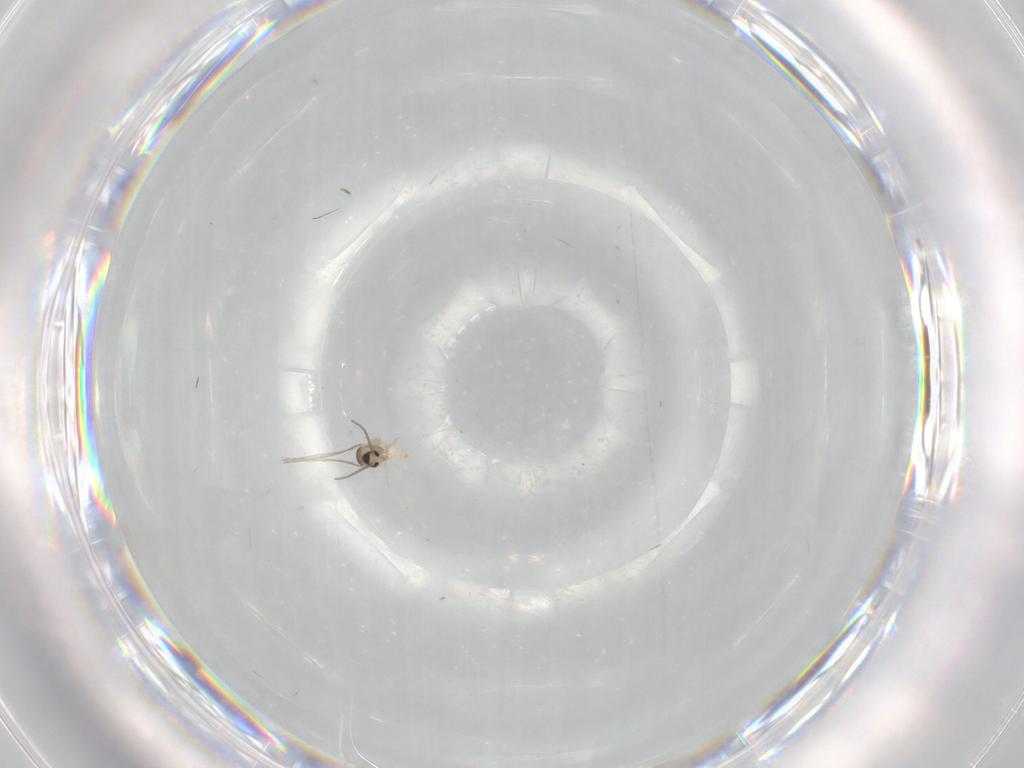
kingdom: Animalia
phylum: Arthropoda
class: Insecta
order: Diptera
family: Cecidomyiidae
